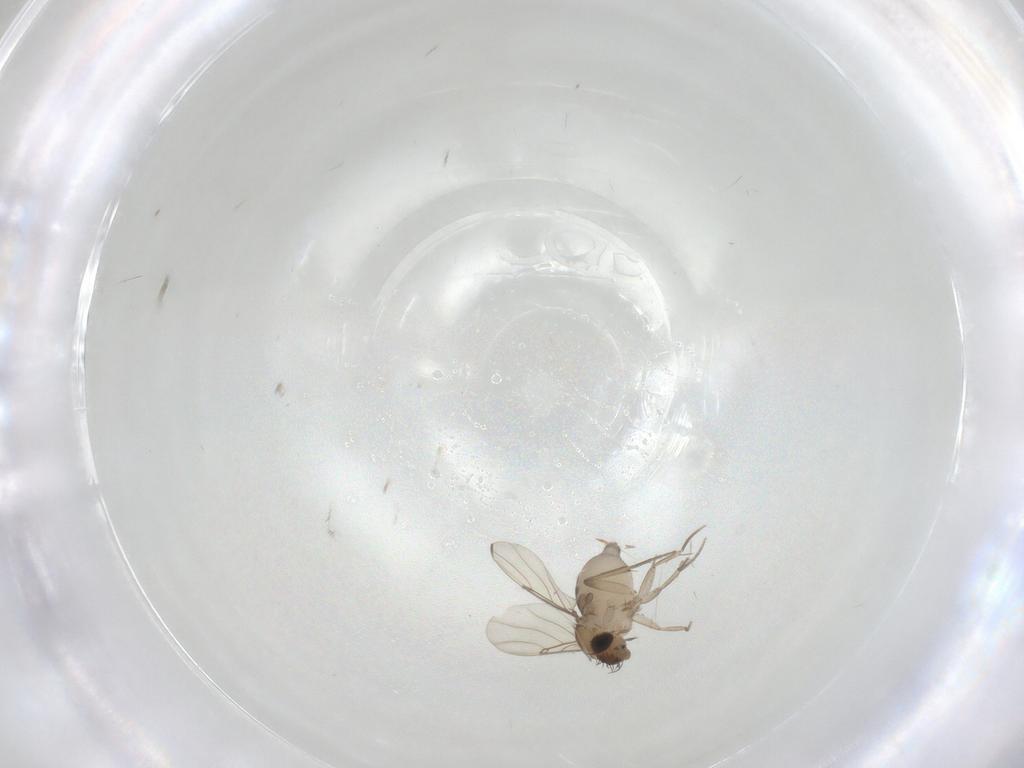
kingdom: Animalia
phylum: Arthropoda
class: Insecta
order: Diptera
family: Phoridae
